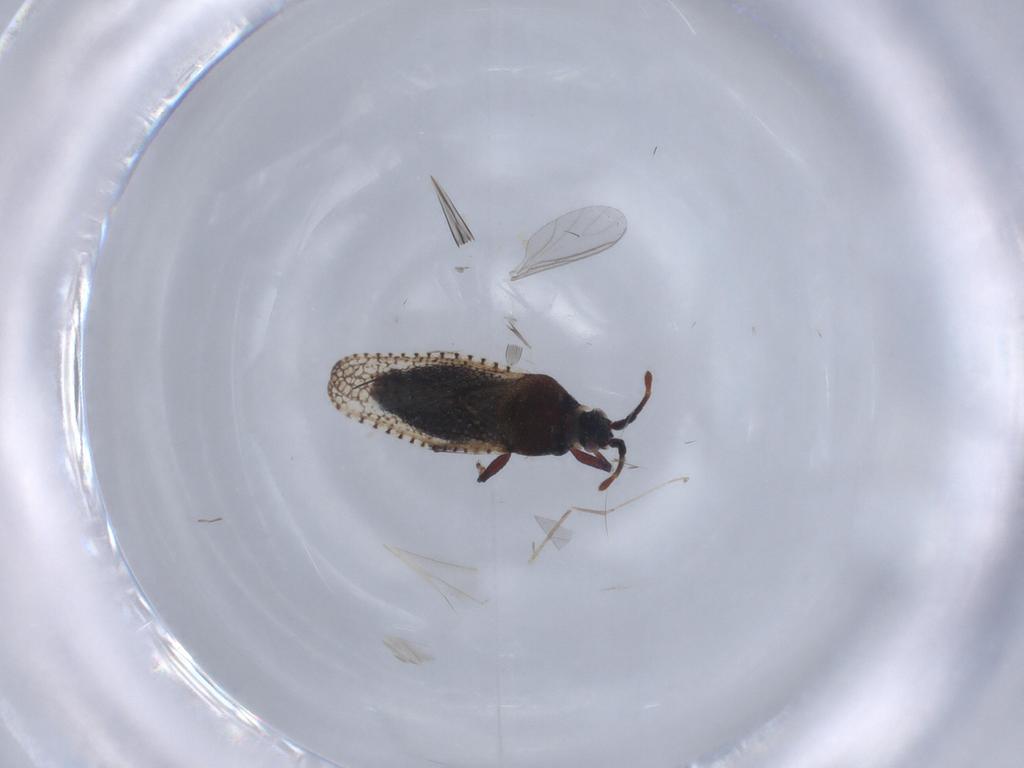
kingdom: Animalia
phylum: Arthropoda
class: Insecta
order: Hemiptera
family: Tingidae
